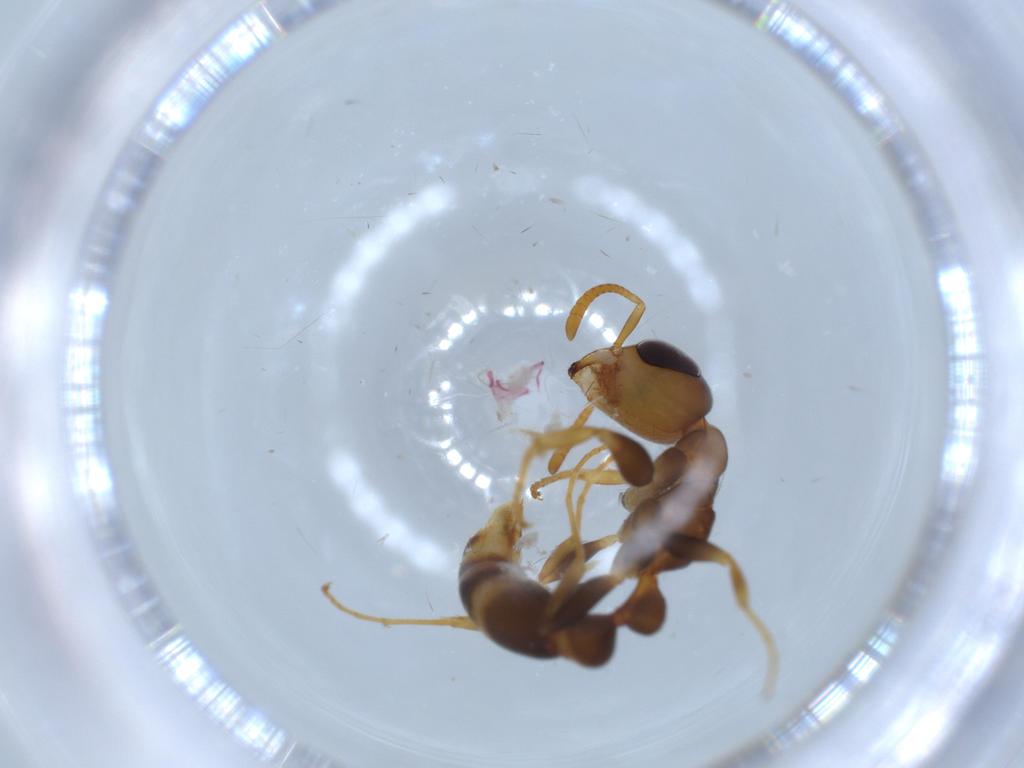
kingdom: Animalia
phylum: Arthropoda
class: Insecta
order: Hymenoptera
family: Formicidae
